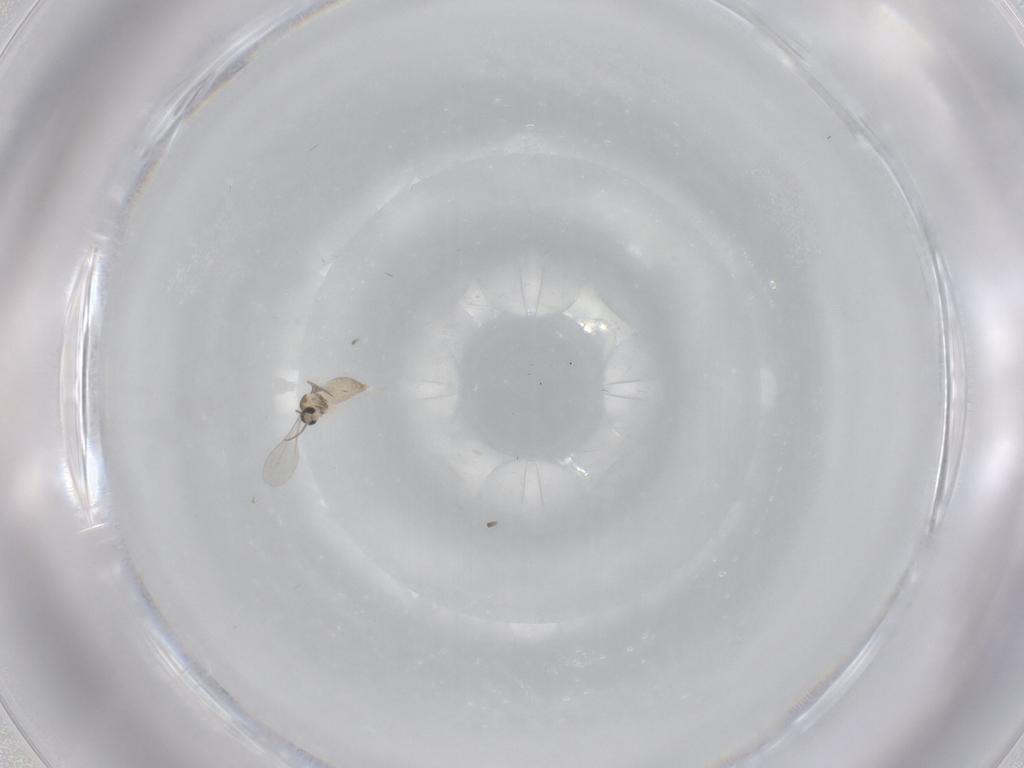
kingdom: Animalia
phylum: Arthropoda
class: Insecta
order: Diptera
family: Cecidomyiidae
